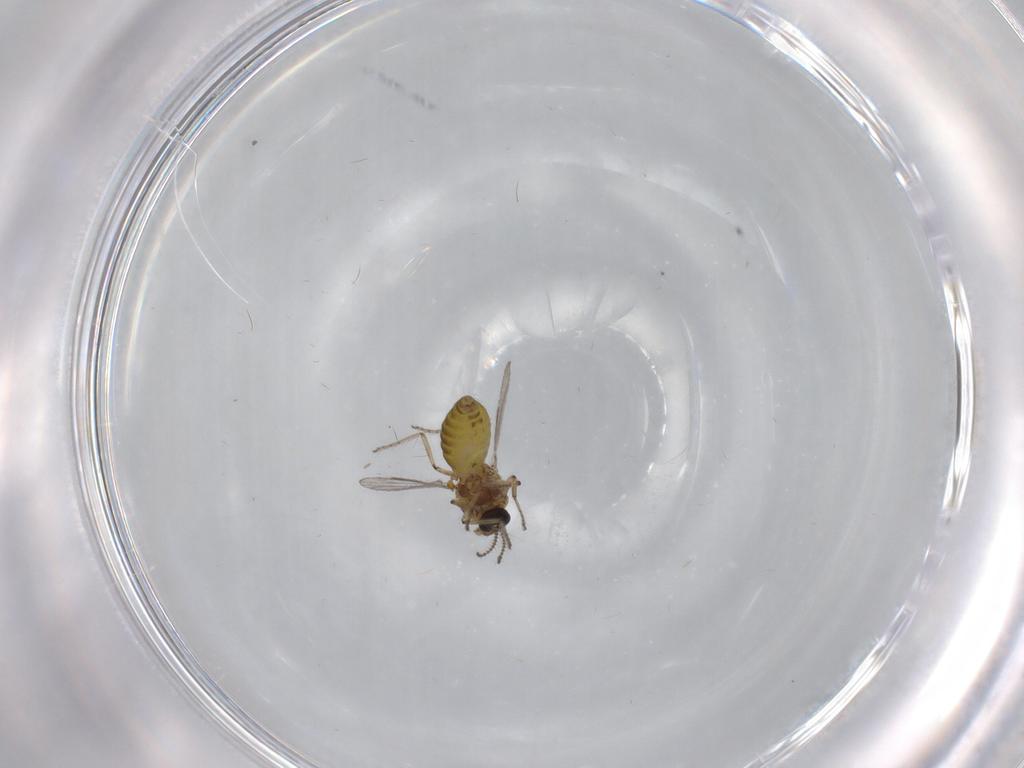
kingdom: Animalia
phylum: Arthropoda
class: Insecta
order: Diptera
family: Ceratopogonidae
